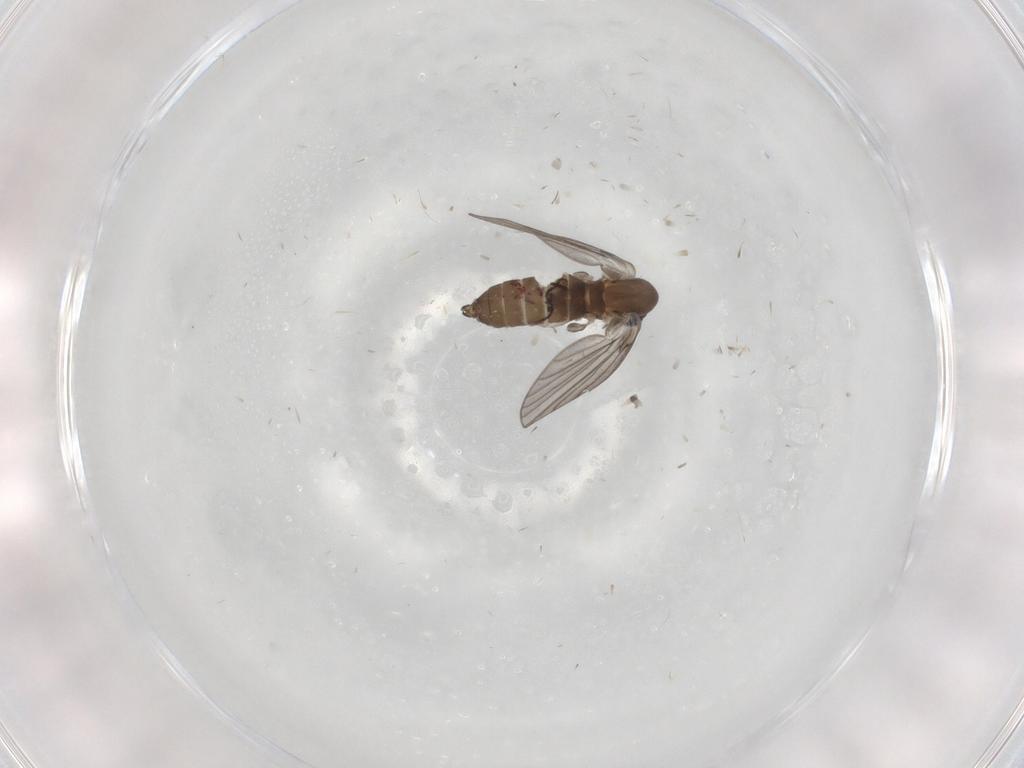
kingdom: Animalia
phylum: Arthropoda
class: Insecta
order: Diptera
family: Psychodidae
